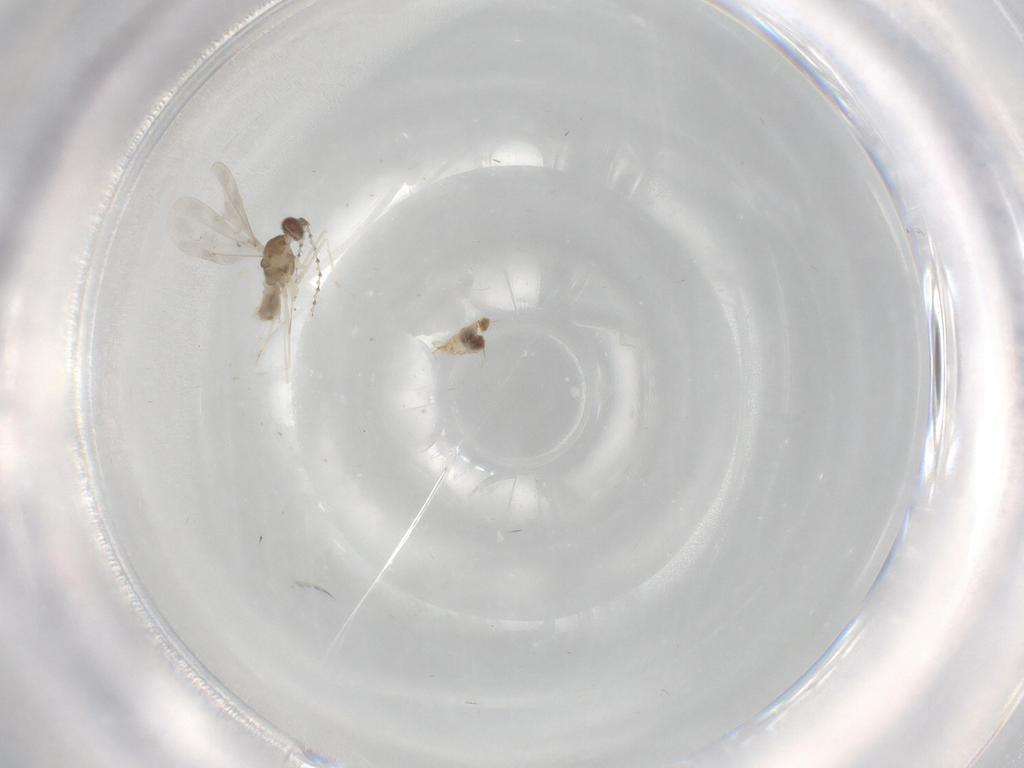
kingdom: Animalia
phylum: Arthropoda
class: Insecta
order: Diptera
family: Cecidomyiidae
